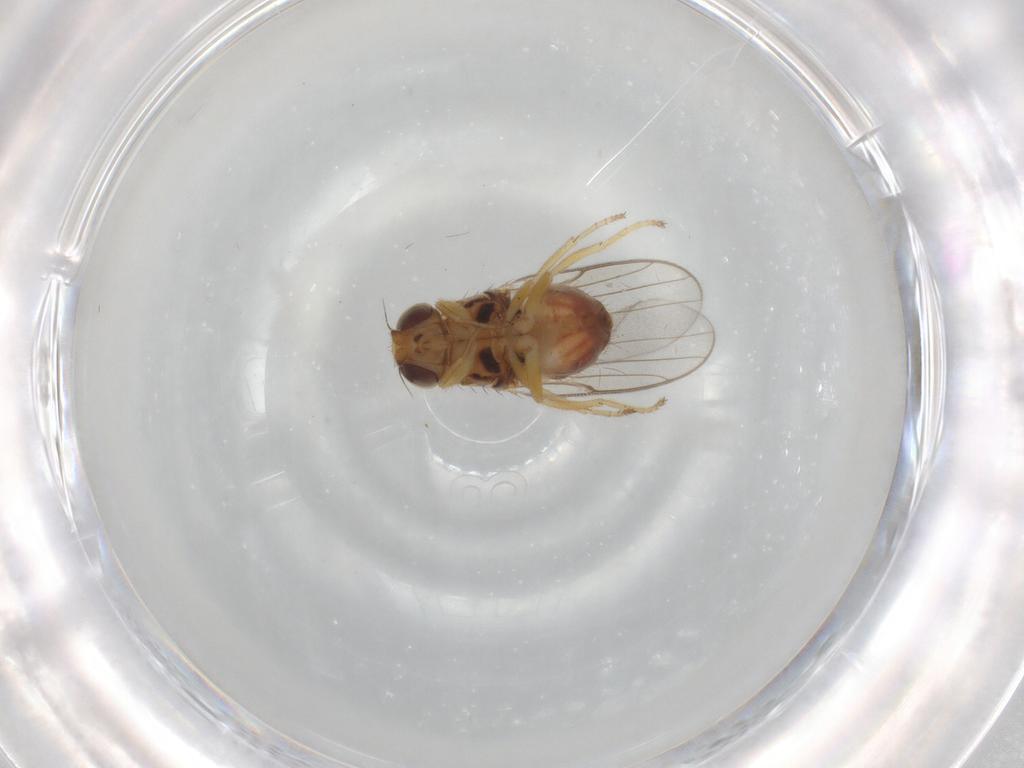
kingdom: Animalia
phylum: Arthropoda
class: Insecta
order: Diptera
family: Chloropidae
